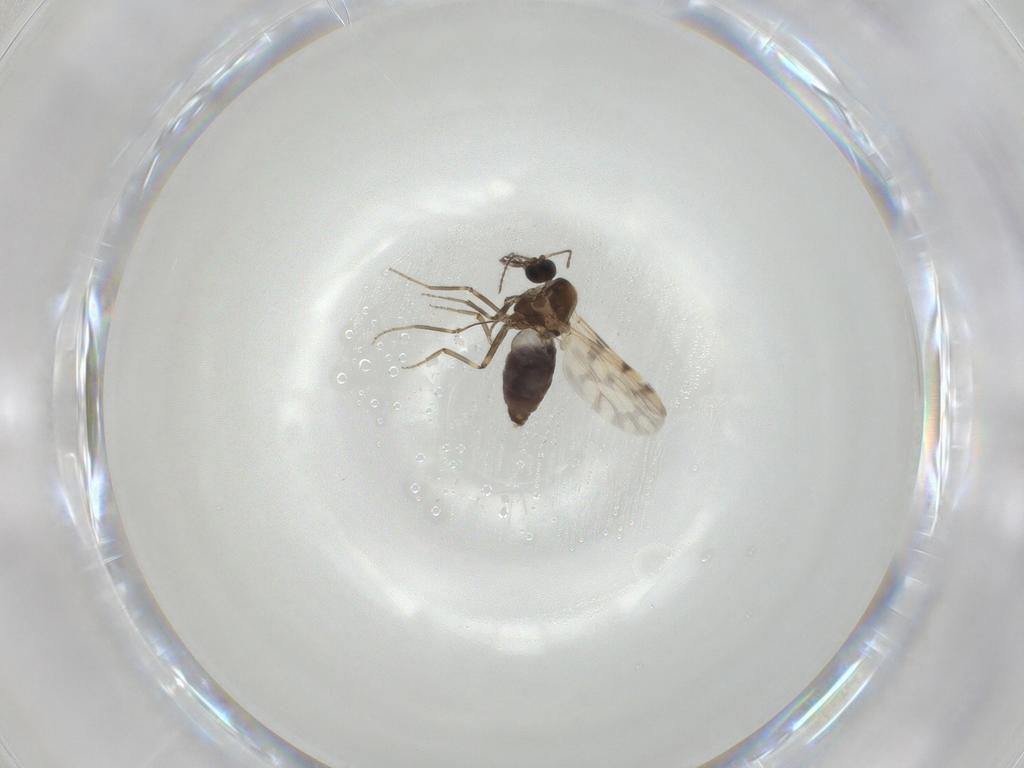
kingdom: Animalia
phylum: Arthropoda
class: Insecta
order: Diptera
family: Ceratopogonidae
